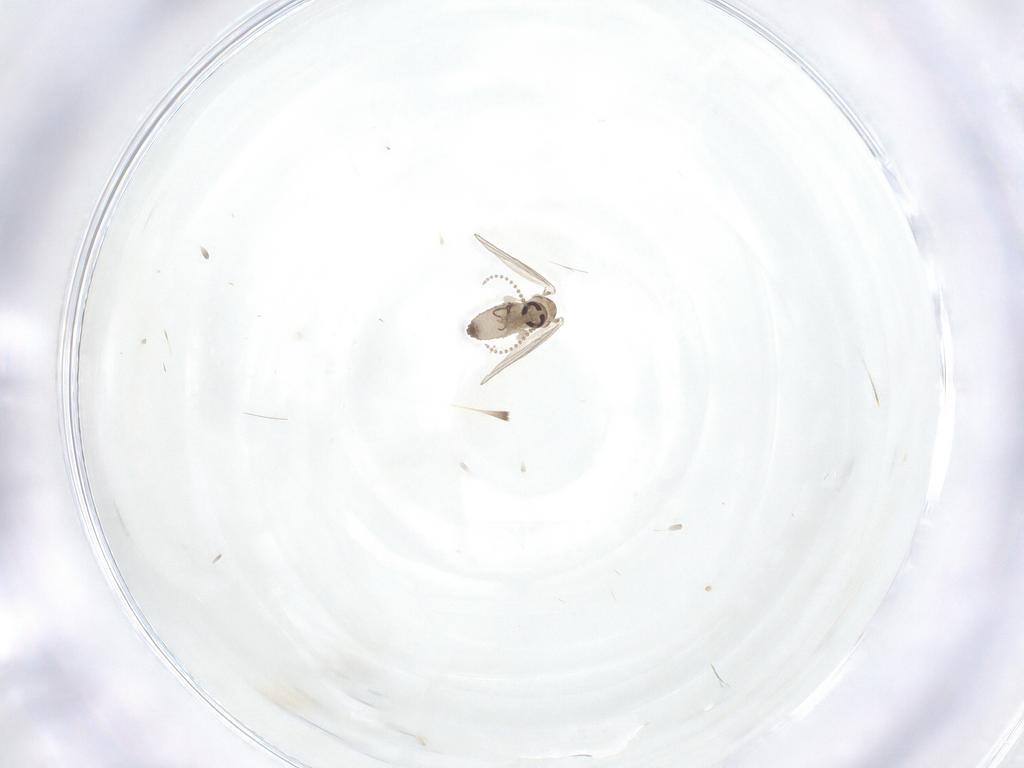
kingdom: Animalia
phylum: Arthropoda
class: Insecta
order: Diptera
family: Psychodidae
